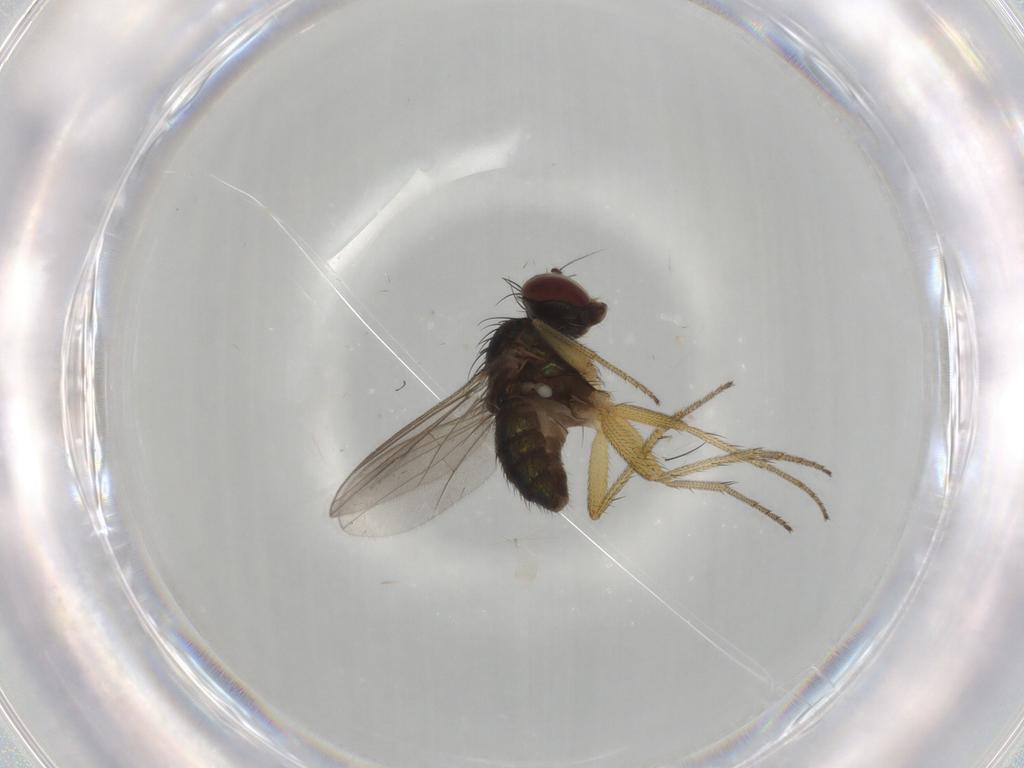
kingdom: Animalia
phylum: Arthropoda
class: Insecta
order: Diptera
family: Dolichopodidae
